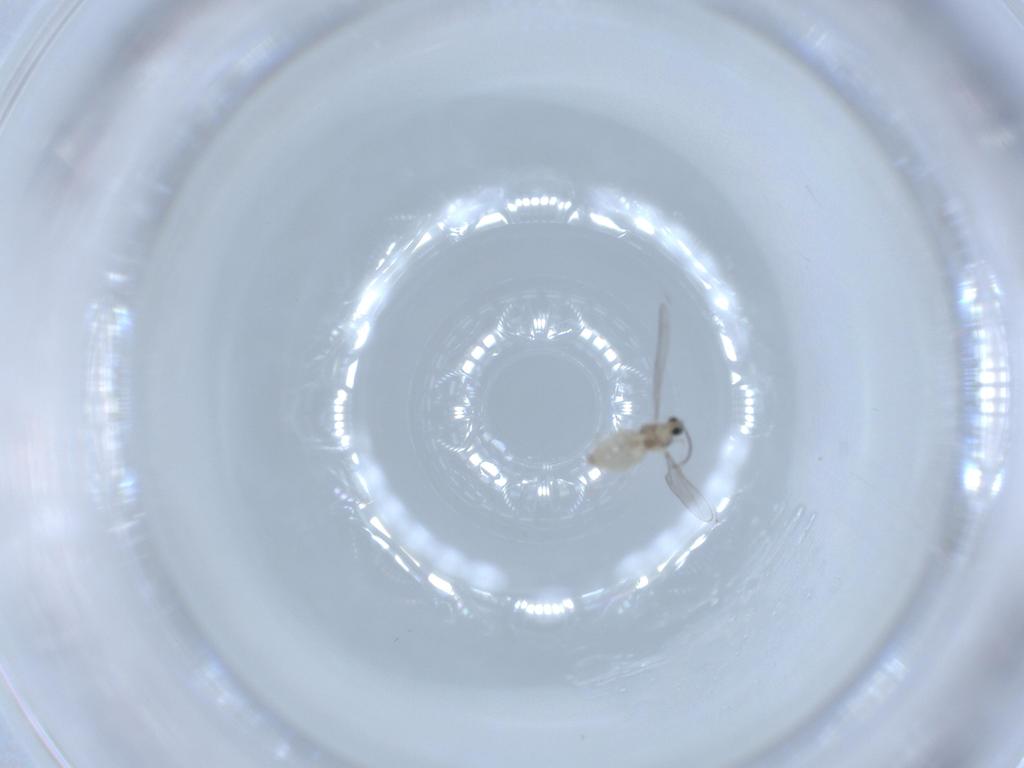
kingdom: Animalia
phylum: Arthropoda
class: Insecta
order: Diptera
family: Cecidomyiidae
